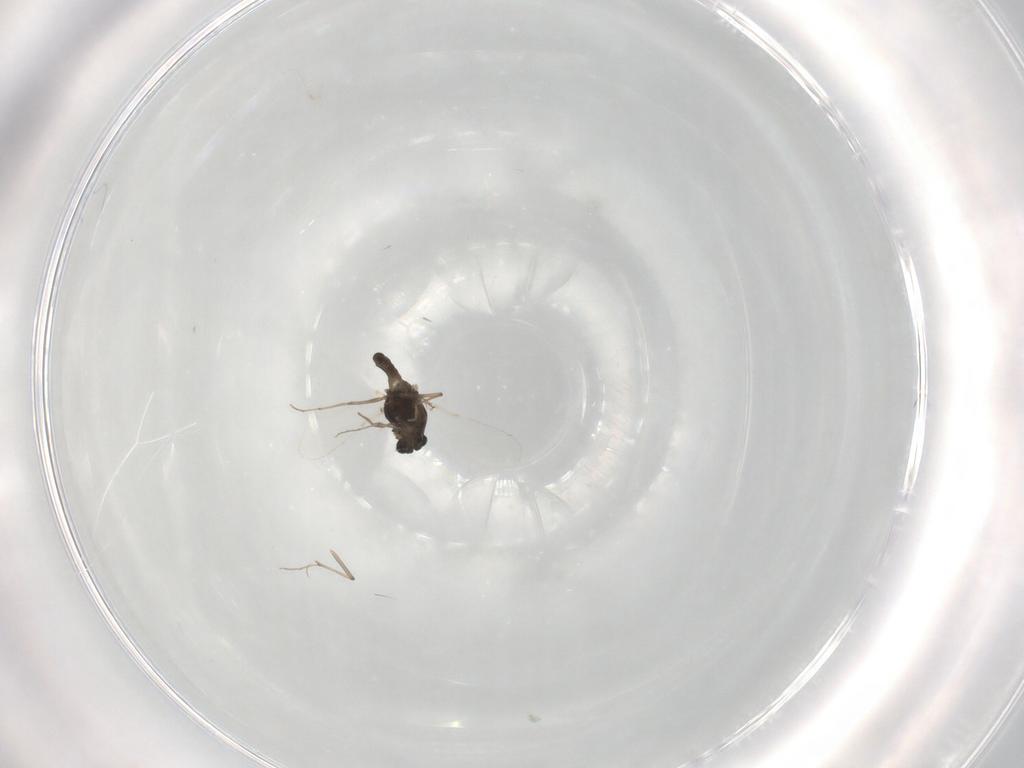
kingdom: Animalia
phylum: Arthropoda
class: Insecta
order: Diptera
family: Chironomidae
